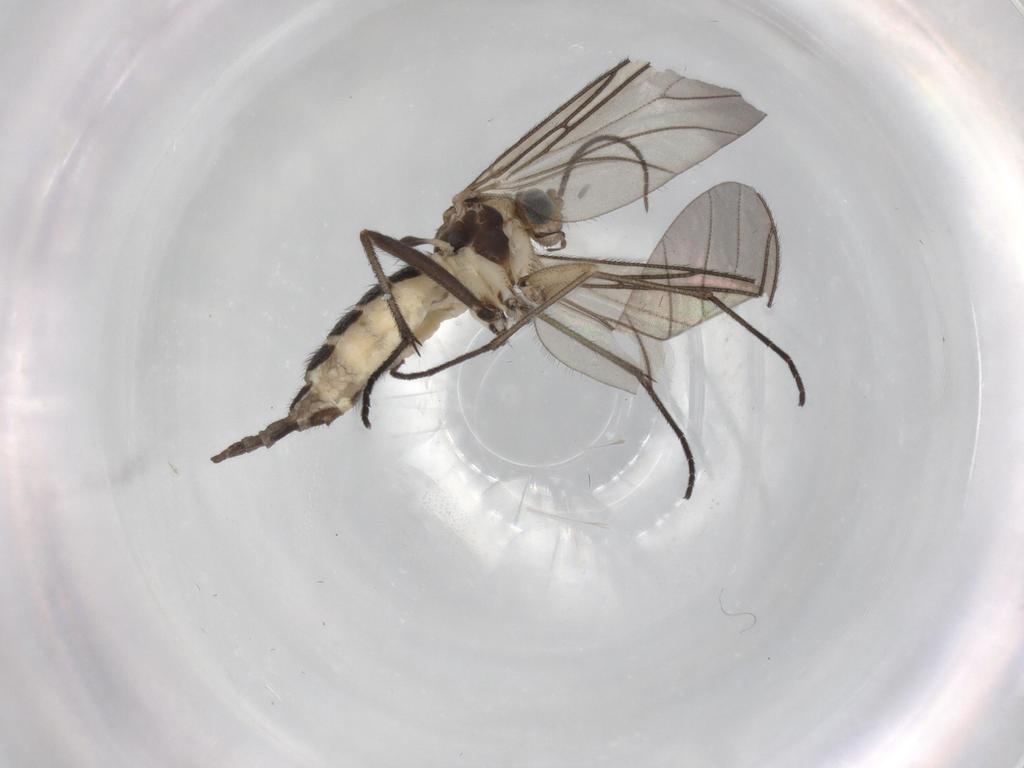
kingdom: Animalia
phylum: Arthropoda
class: Insecta
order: Diptera
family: Sciaridae
